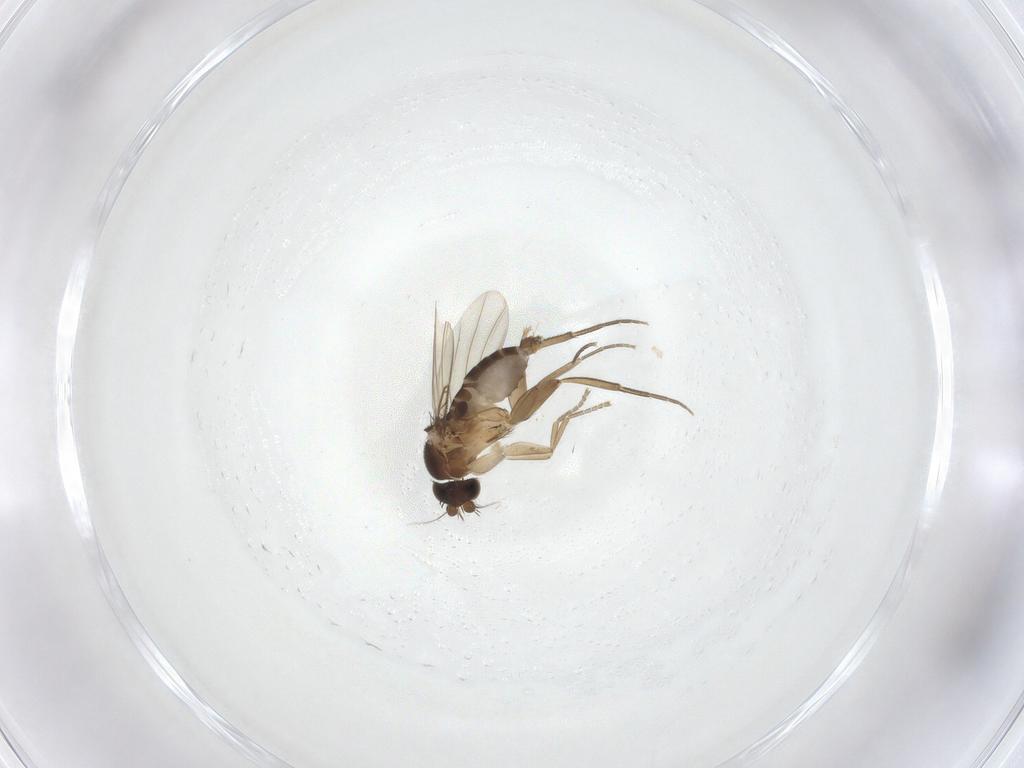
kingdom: Animalia
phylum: Arthropoda
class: Insecta
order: Diptera
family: Phoridae
